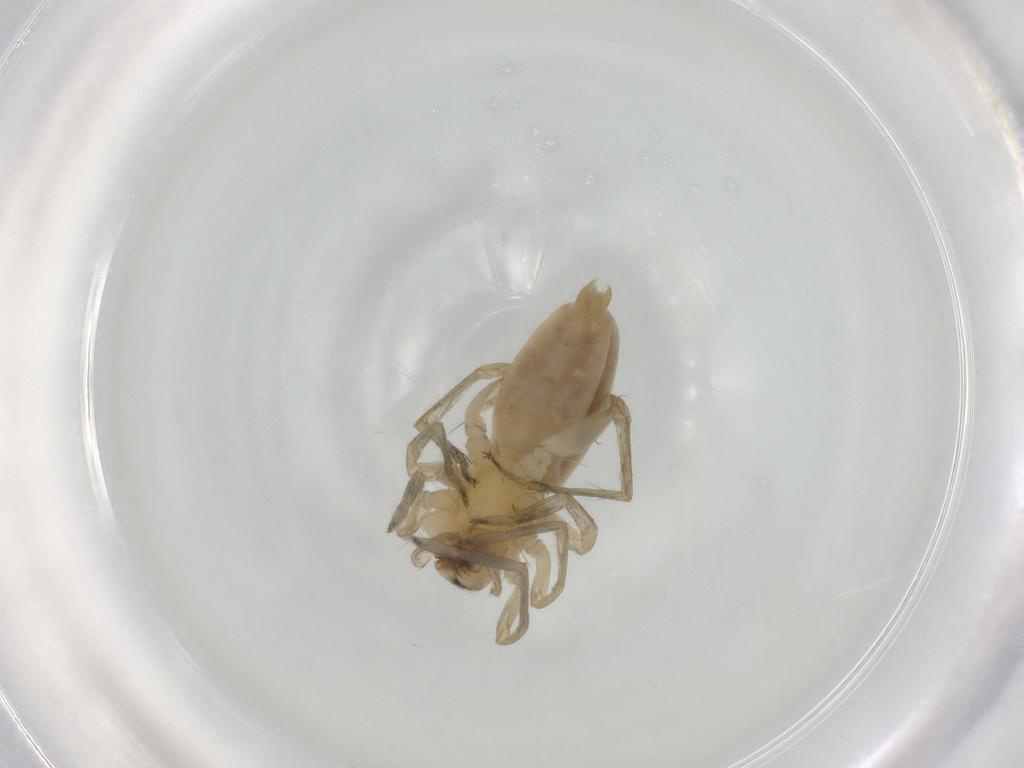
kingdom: Animalia
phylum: Arthropoda
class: Arachnida
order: Araneae
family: Anyphaenidae
